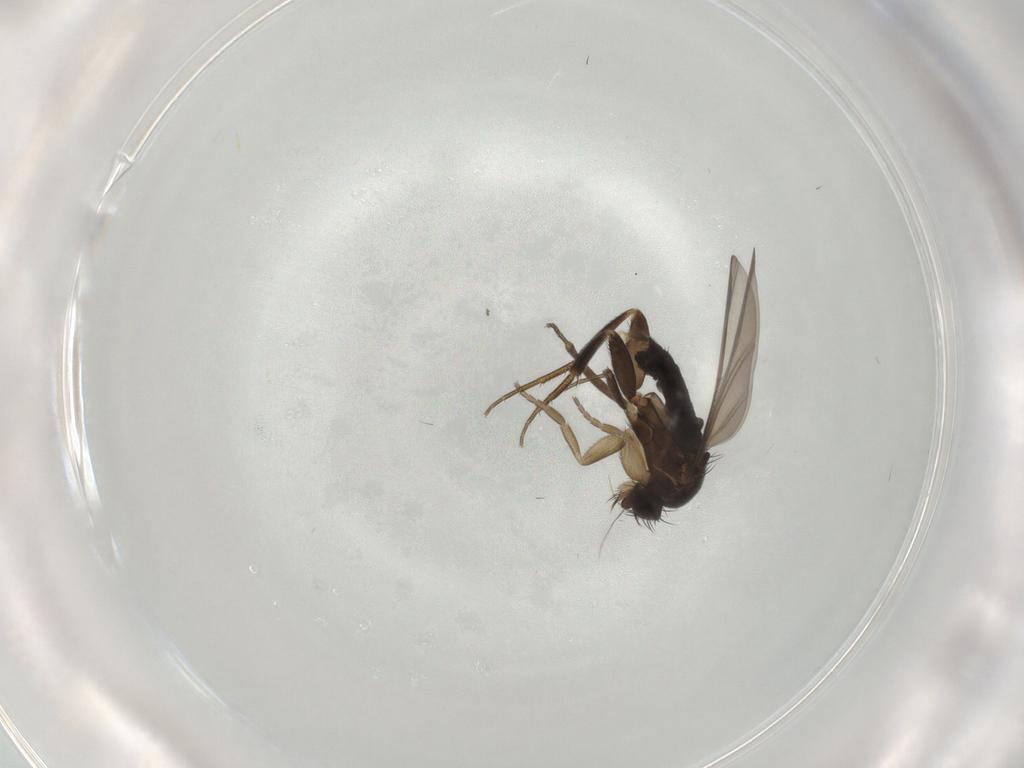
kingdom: Animalia
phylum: Arthropoda
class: Insecta
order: Diptera
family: Phoridae
